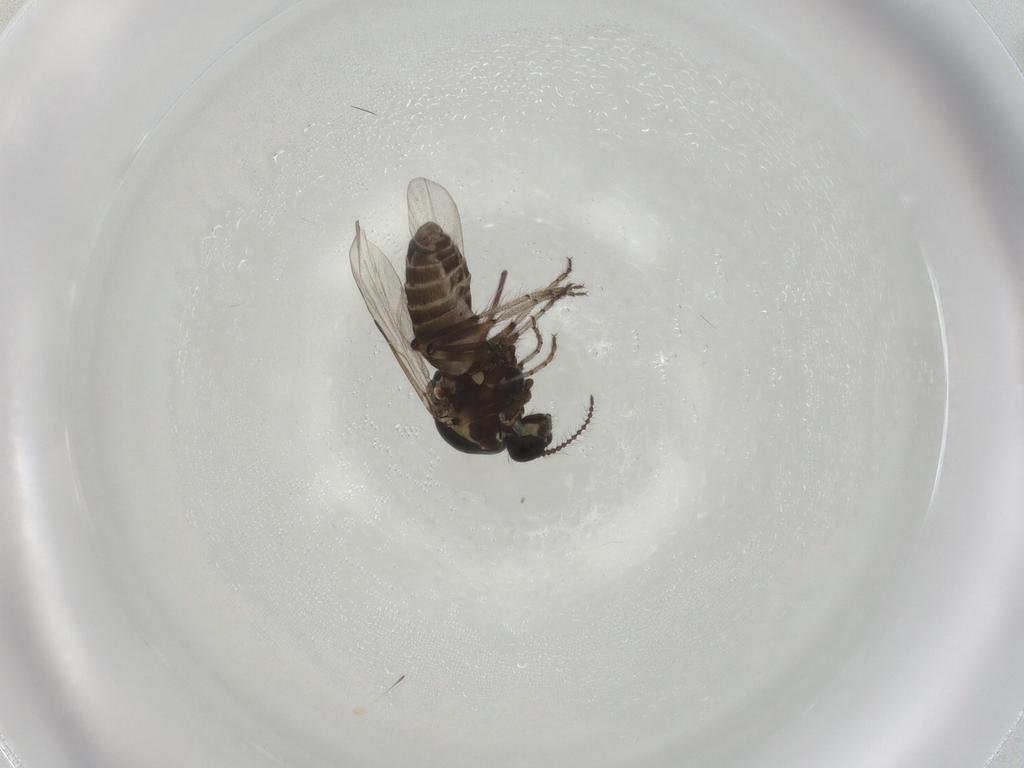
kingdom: Animalia
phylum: Arthropoda
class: Insecta
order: Diptera
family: Ceratopogonidae
